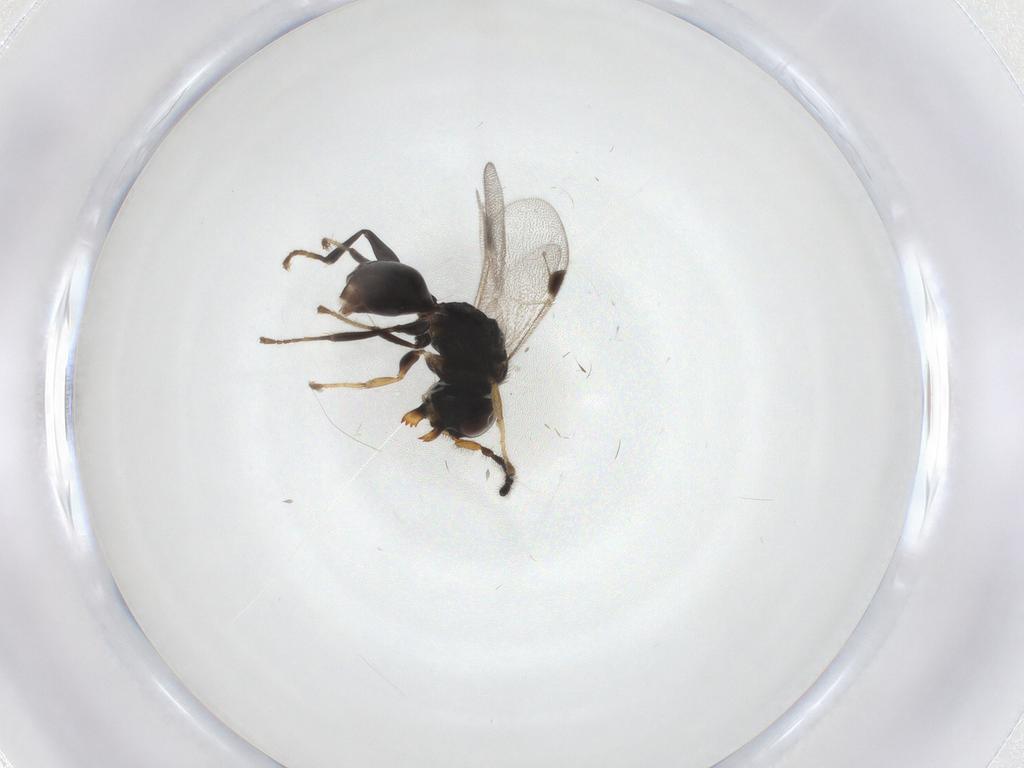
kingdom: Animalia
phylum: Arthropoda
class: Insecta
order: Hymenoptera
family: Dryinidae
